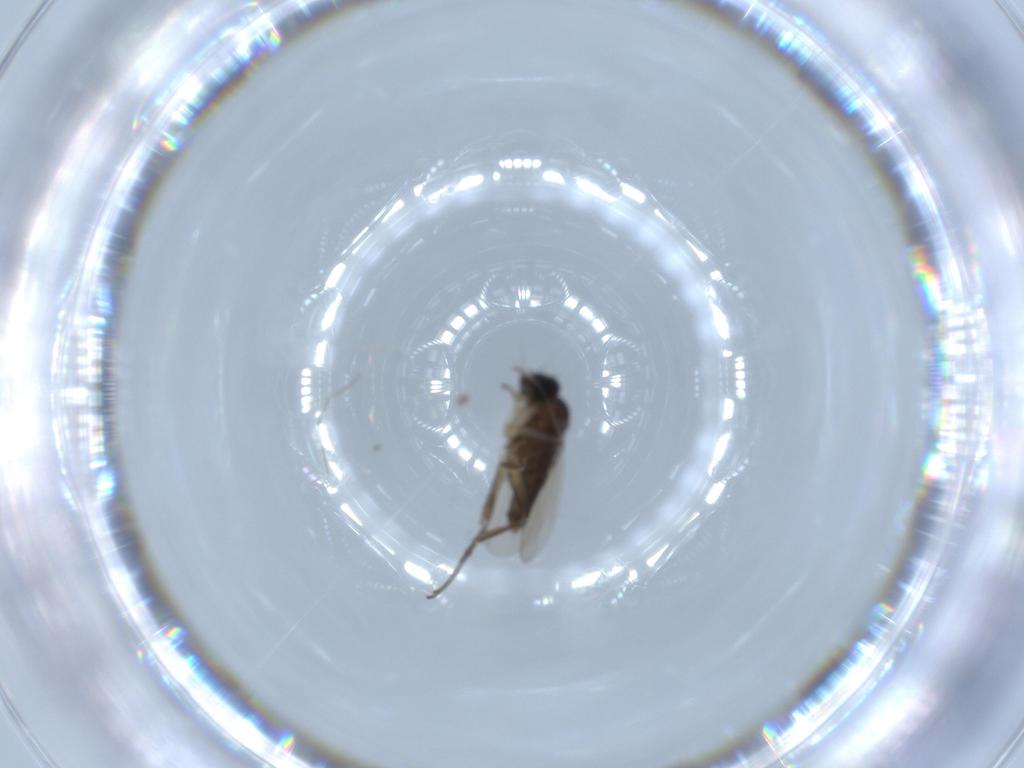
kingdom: Animalia
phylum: Arthropoda
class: Insecta
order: Diptera
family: Phoridae
